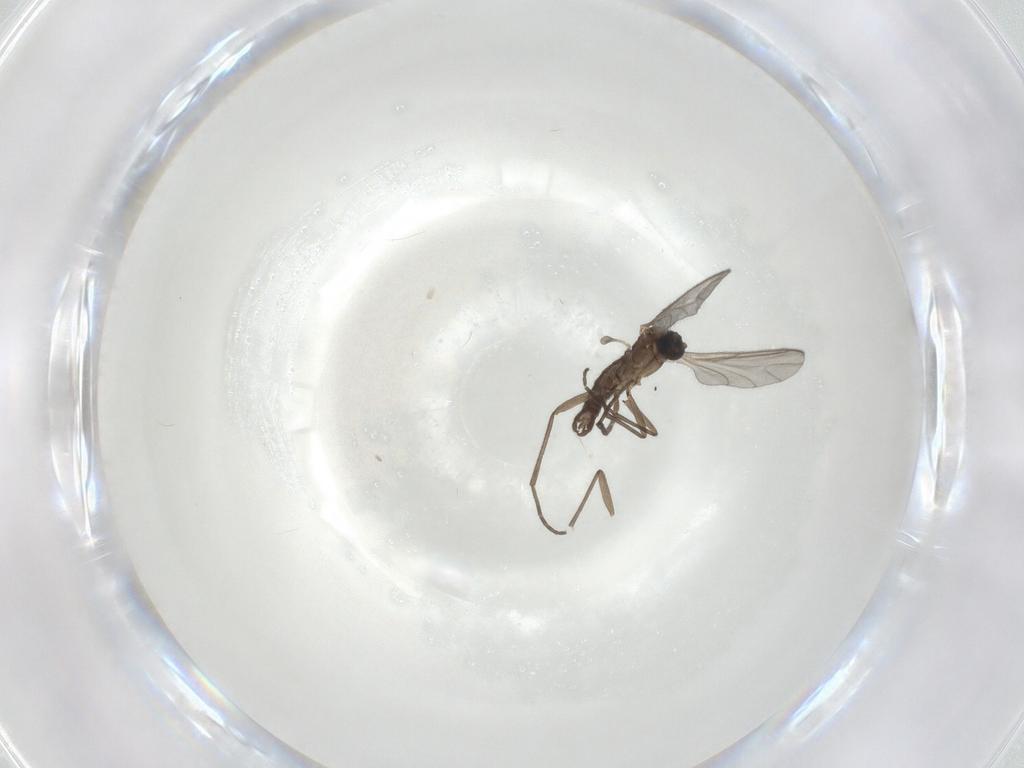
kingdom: Animalia
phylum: Arthropoda
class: Insecta
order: Diptera
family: Sciaridae
